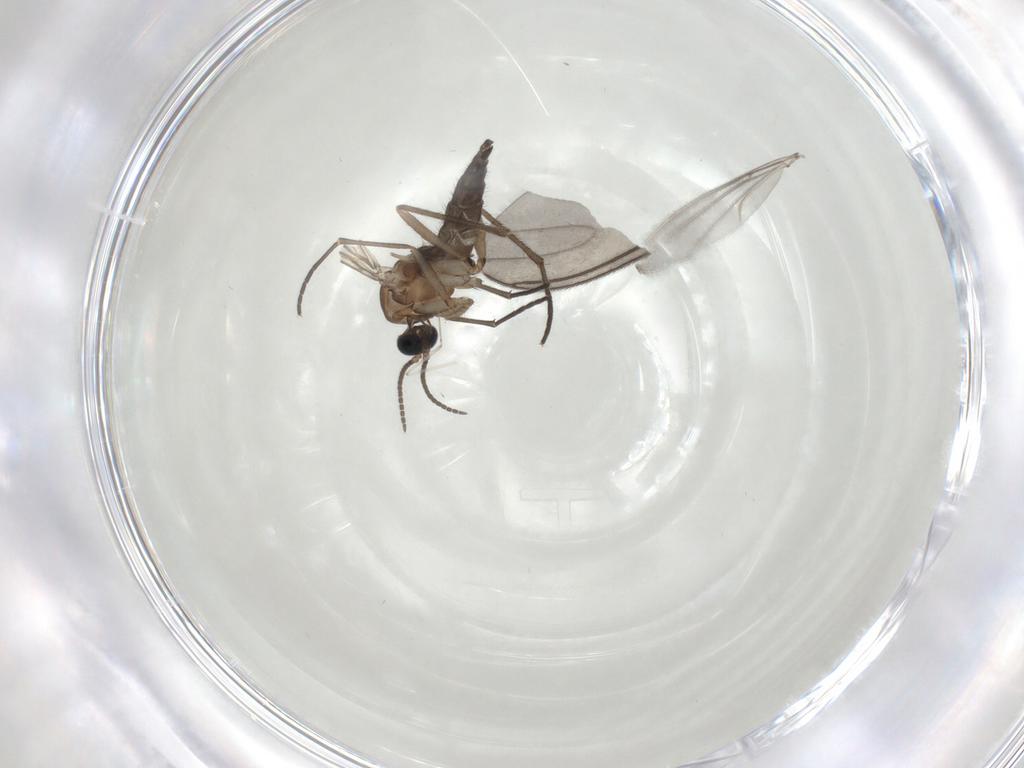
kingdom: Animalia
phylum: Arthropoda
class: Insecta
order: Diptera
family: Sciaridae
